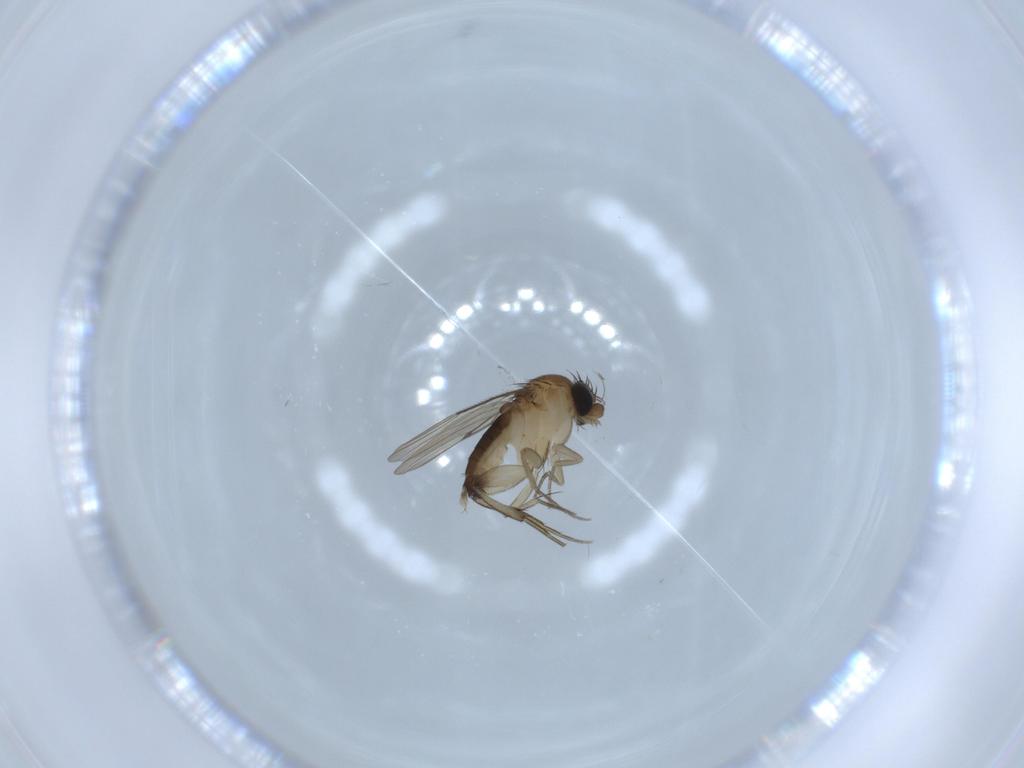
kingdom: Animalia
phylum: Arthropoda
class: Insecta
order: Diptera
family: Phoridae
